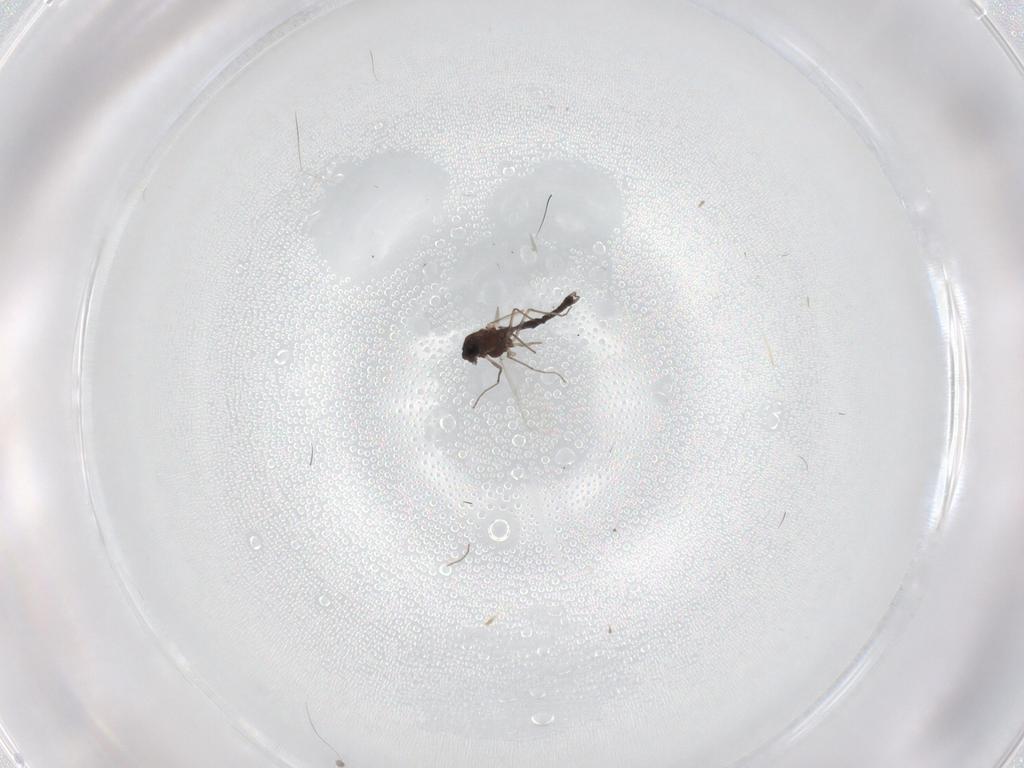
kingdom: Animalia
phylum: Arthropoda
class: Insecta
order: Diptera
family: Chironomidae
